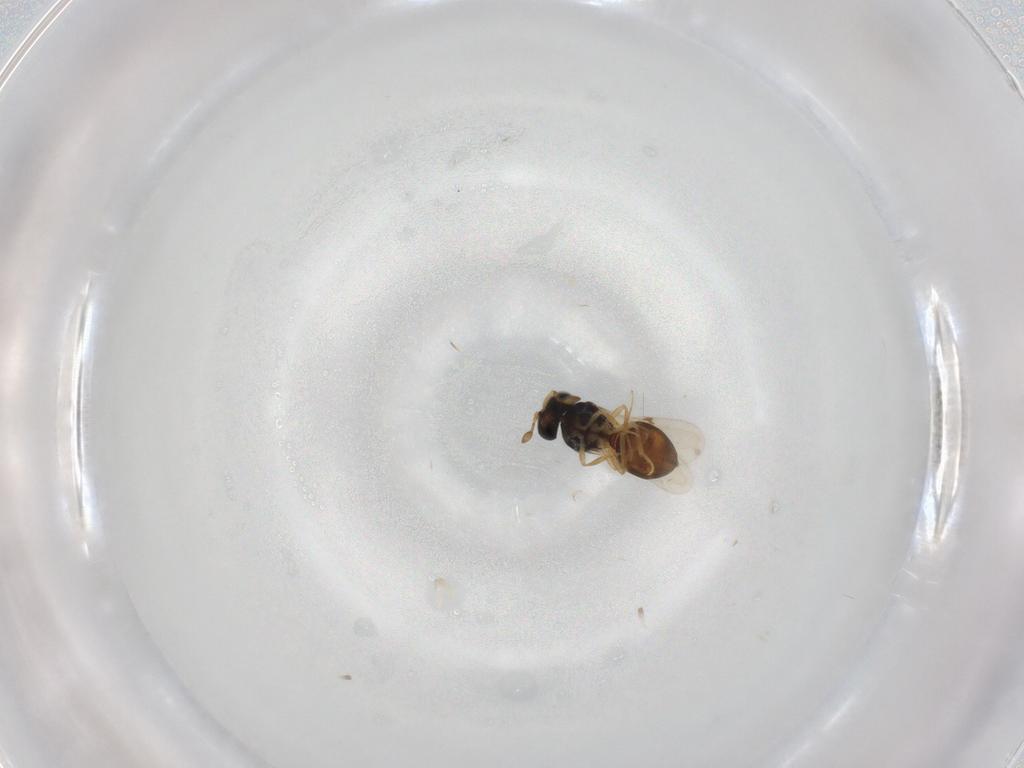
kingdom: Animalia
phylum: Arthropoda
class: Insecta
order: Hymenoptera
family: Scelionidae
